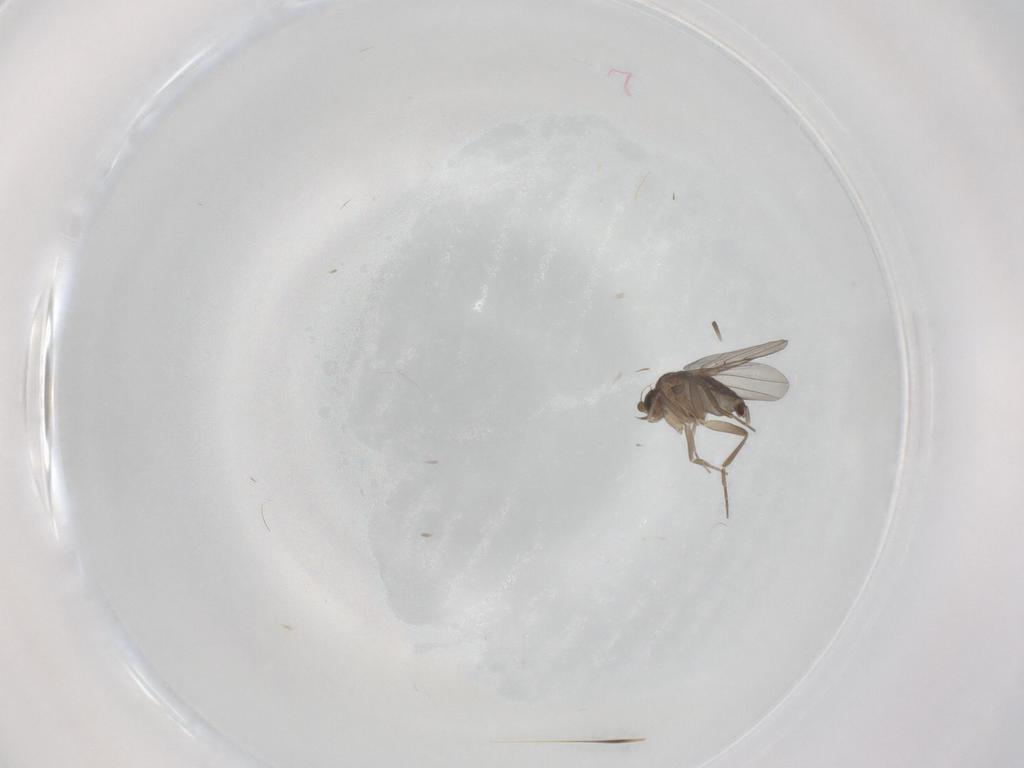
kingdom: Animalia
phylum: Arthropoda
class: Insecta
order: Diptera
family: Cecidomyiidae
